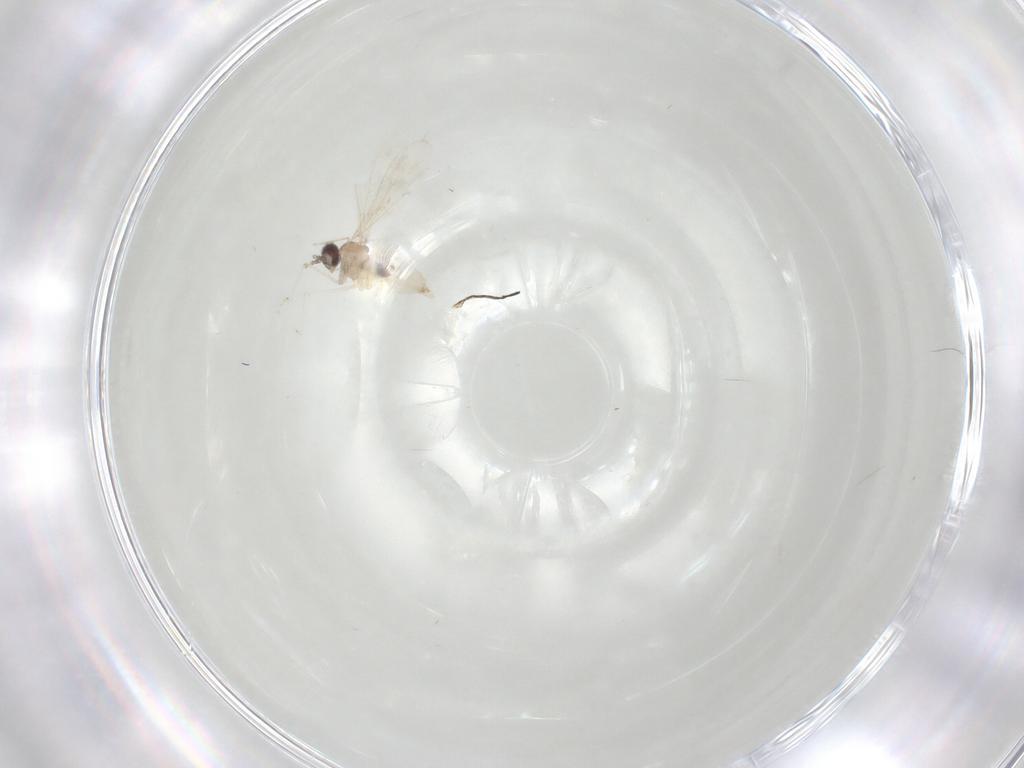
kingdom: Animalia
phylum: Arthropoda
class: Insecta
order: Diptera
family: Cecidomyiidae
